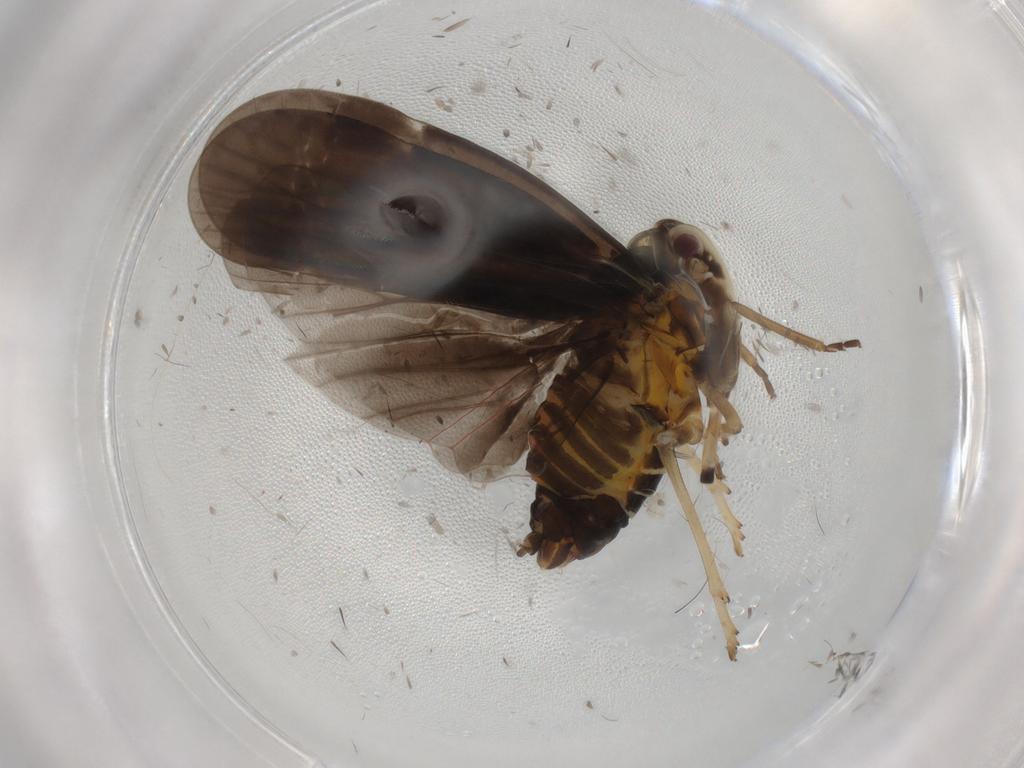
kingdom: Animalia
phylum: Arthropoda
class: Insecta
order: Hemiptera
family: Derbidae
